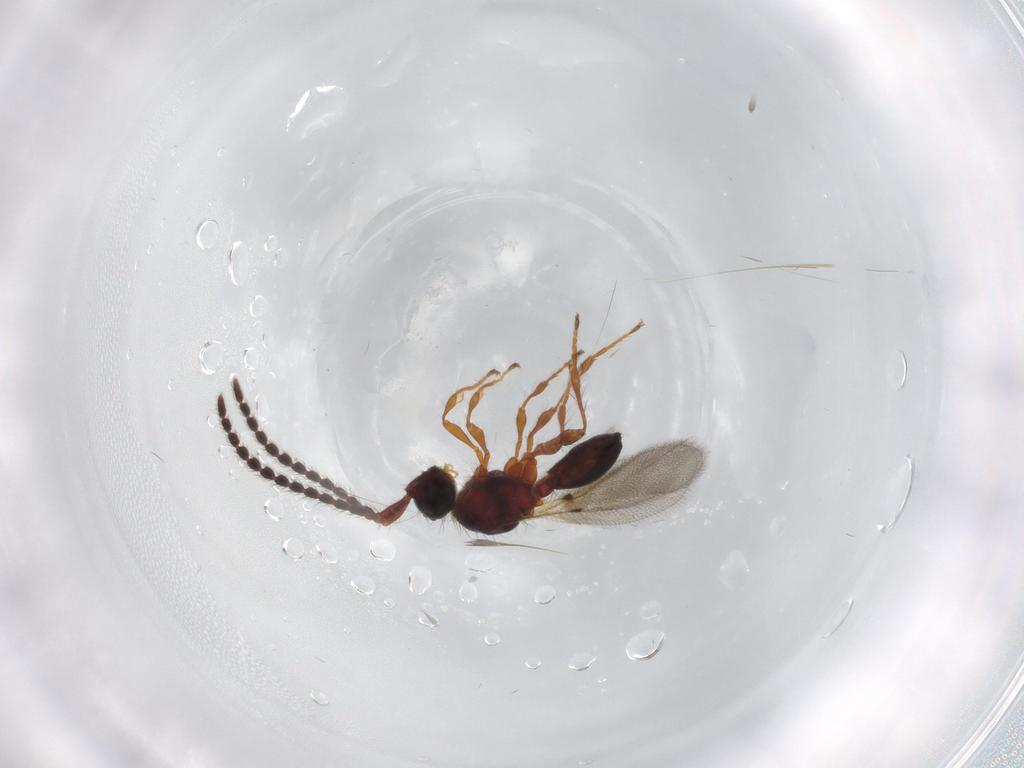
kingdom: Animalia
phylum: Arthropoda
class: Insecta
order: Hymenoptera
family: Diapriidae
